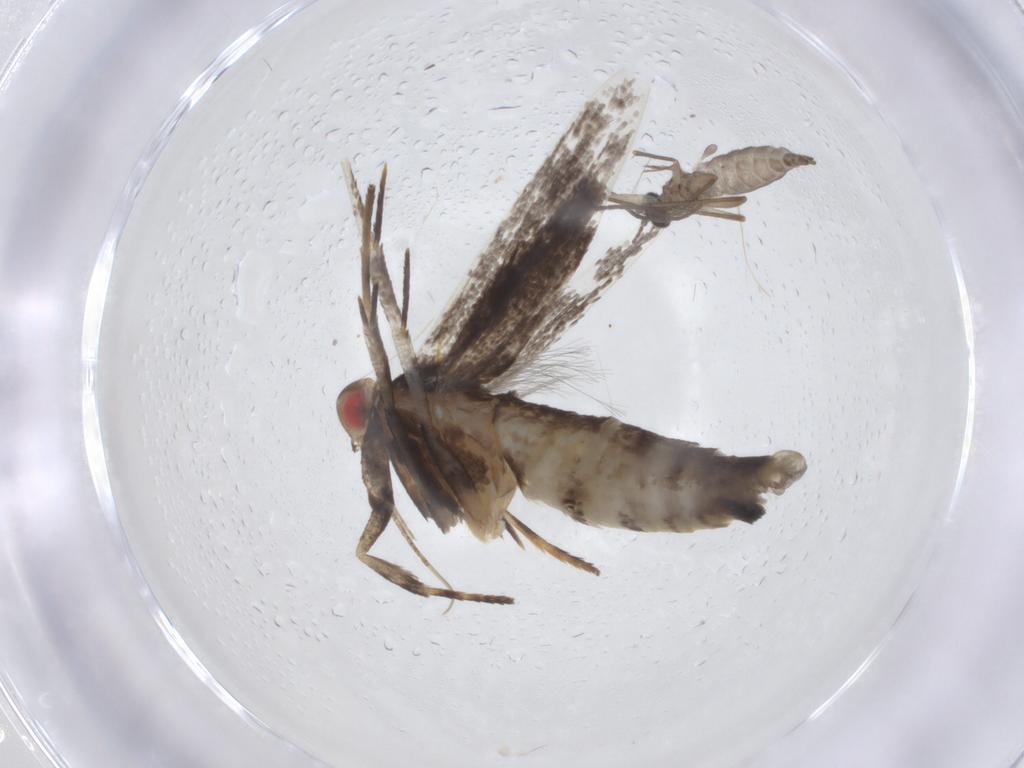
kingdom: Animalia
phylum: Arthropoda
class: Insecta
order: Lepidoptera
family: Gelechiidae
